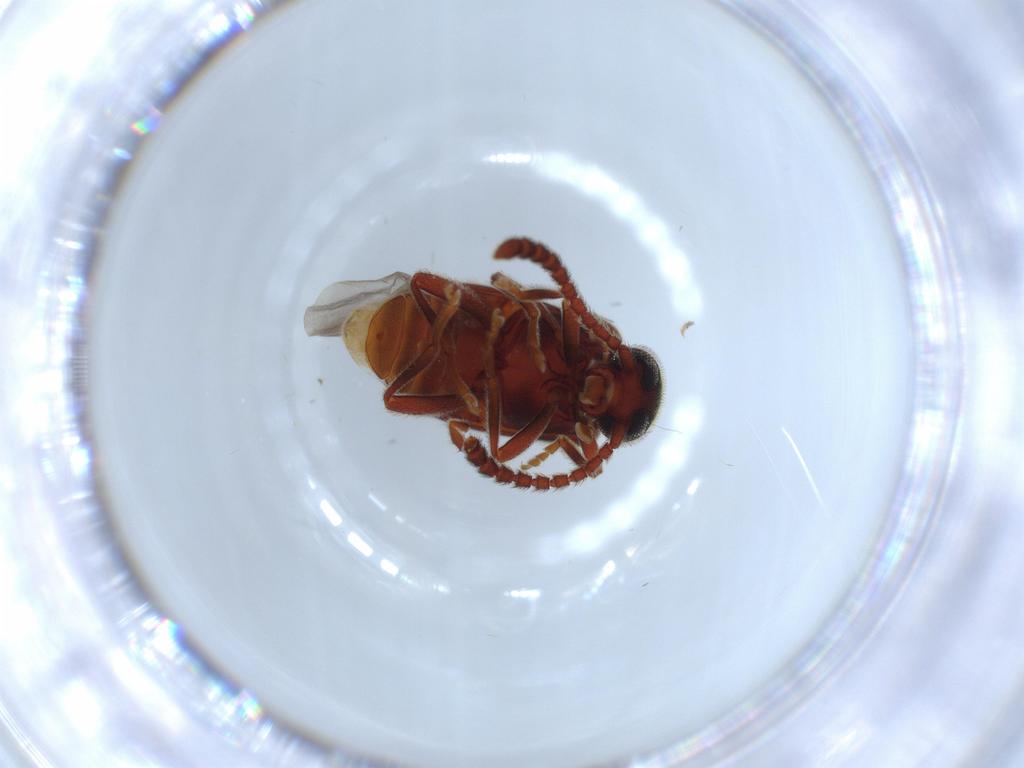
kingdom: Animalia
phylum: Arthropoda
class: Insecta
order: Coleoptera
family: Aderidae
